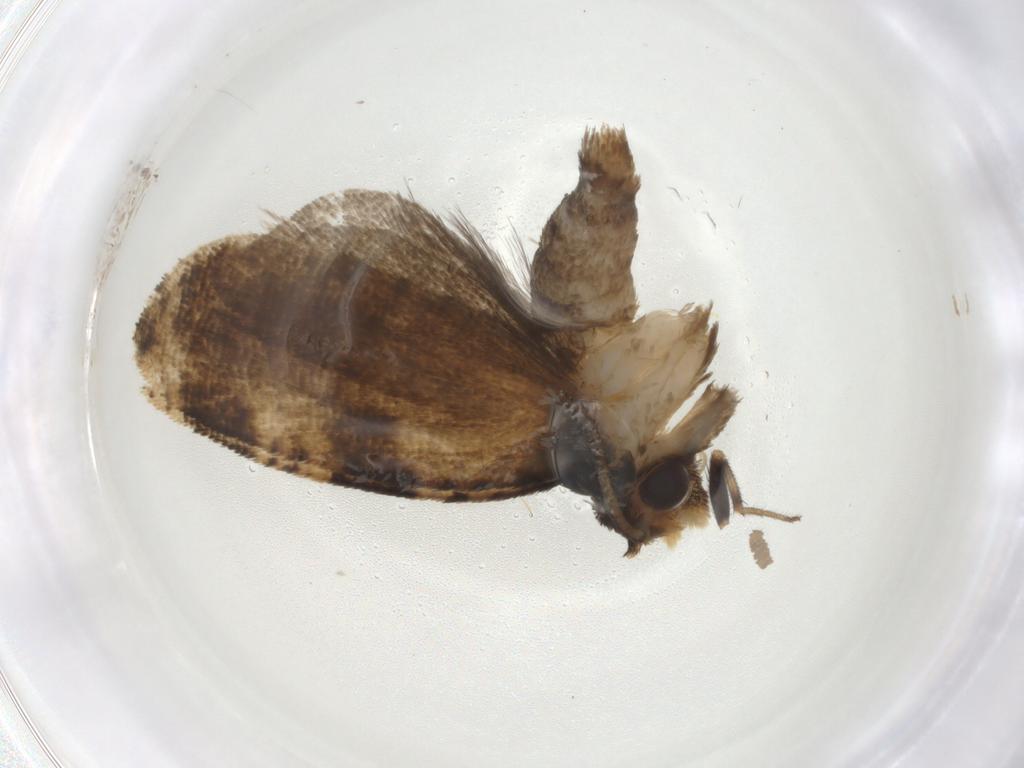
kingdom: Animalia
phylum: Arthropoda
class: Insecta
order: Lepidoptera
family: Tortricidae
